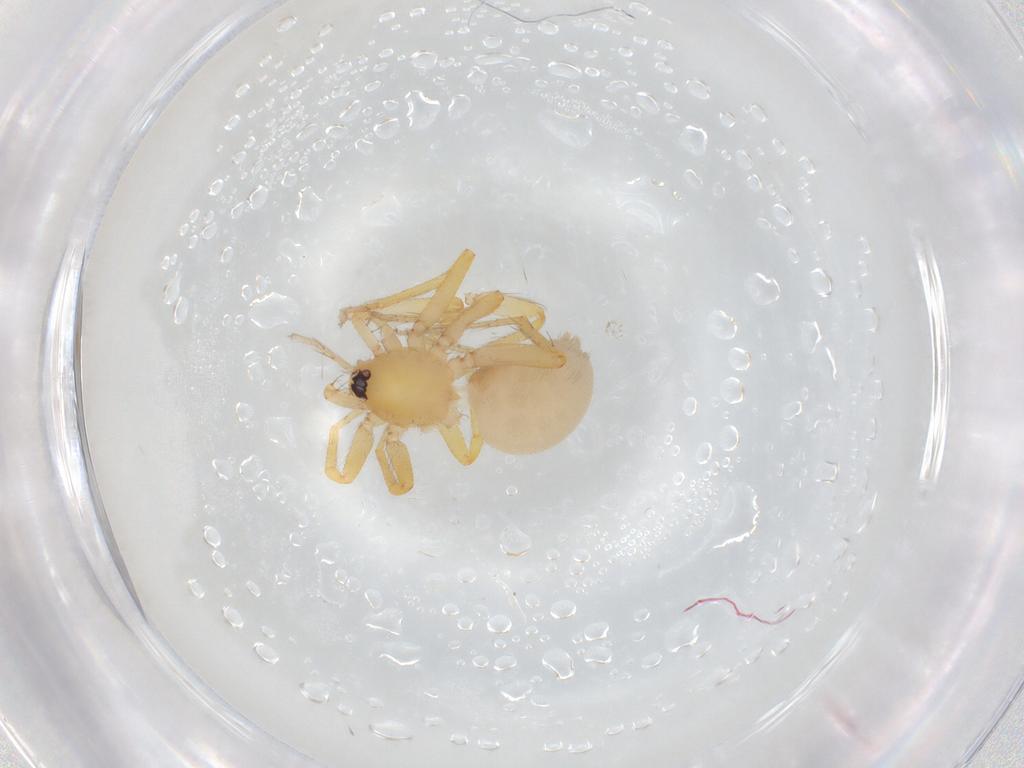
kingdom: Animalia
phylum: Arthropoda
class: Arachnida
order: Araneae
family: Oonopidae
